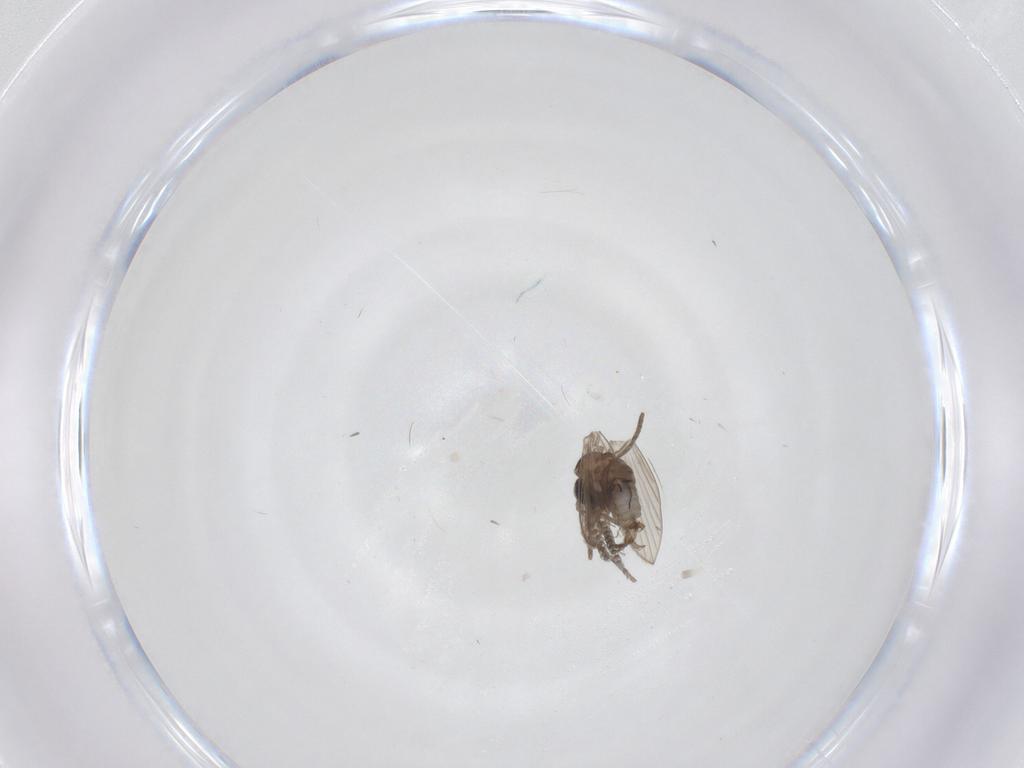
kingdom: Animalia
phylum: Arthropoda
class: Insecta
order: Diptera
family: Psychodidae
